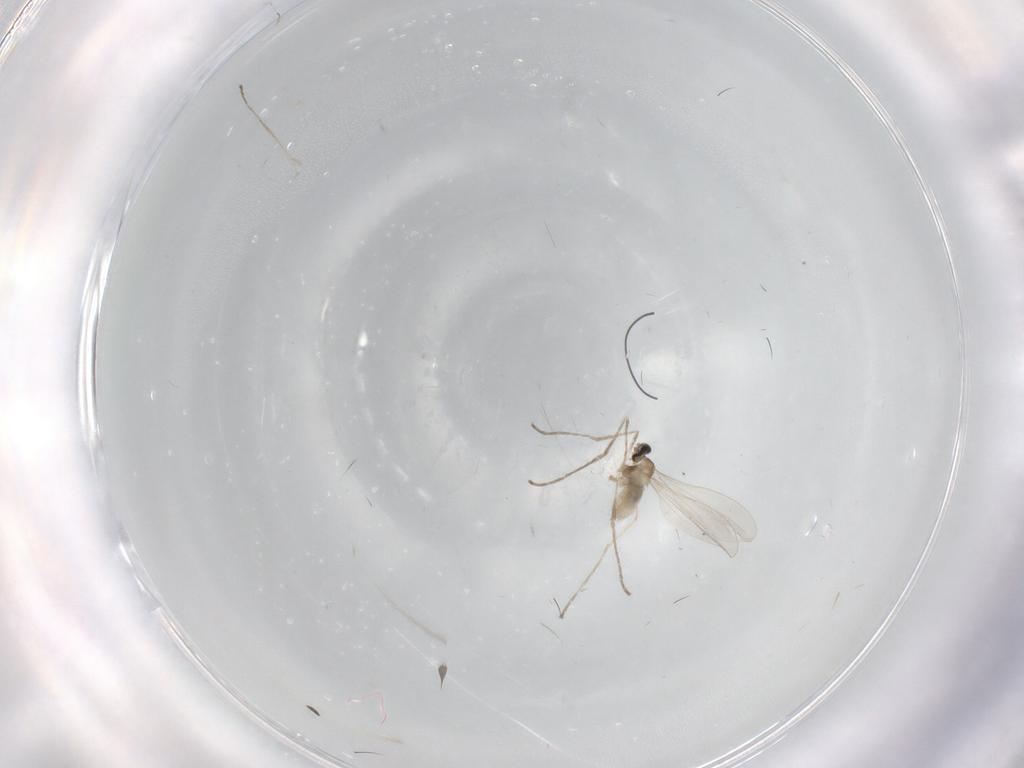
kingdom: Animalia
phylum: Arthropoda
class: Insecta
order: Diptera
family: Cecidomyiidae
